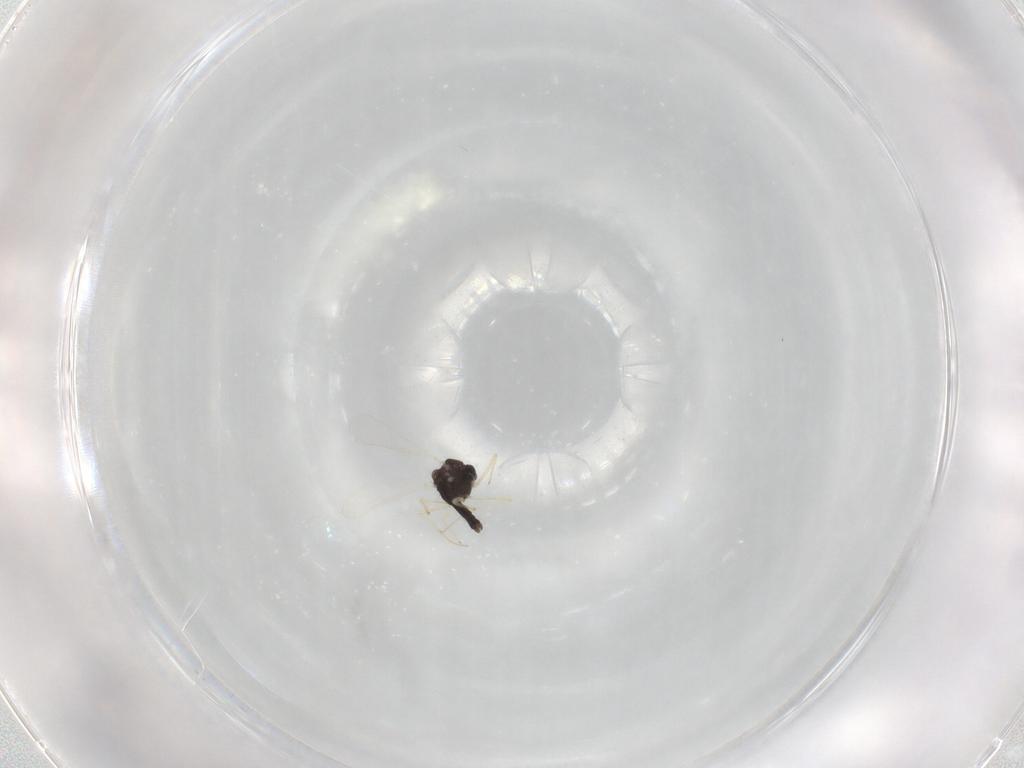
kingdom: Animalia
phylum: Arthropoda
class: Insecta
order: Diptera
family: Chironomidae
